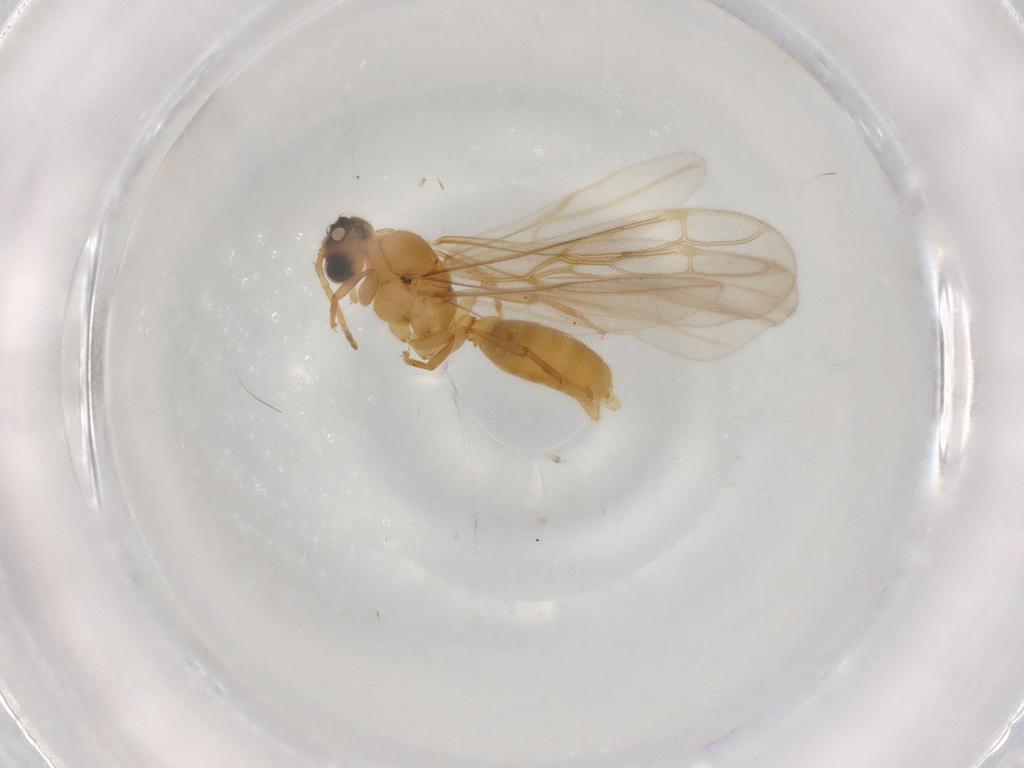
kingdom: Animalia
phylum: Arthropoda
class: Insecta
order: Hymenoptera
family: Formicidae
